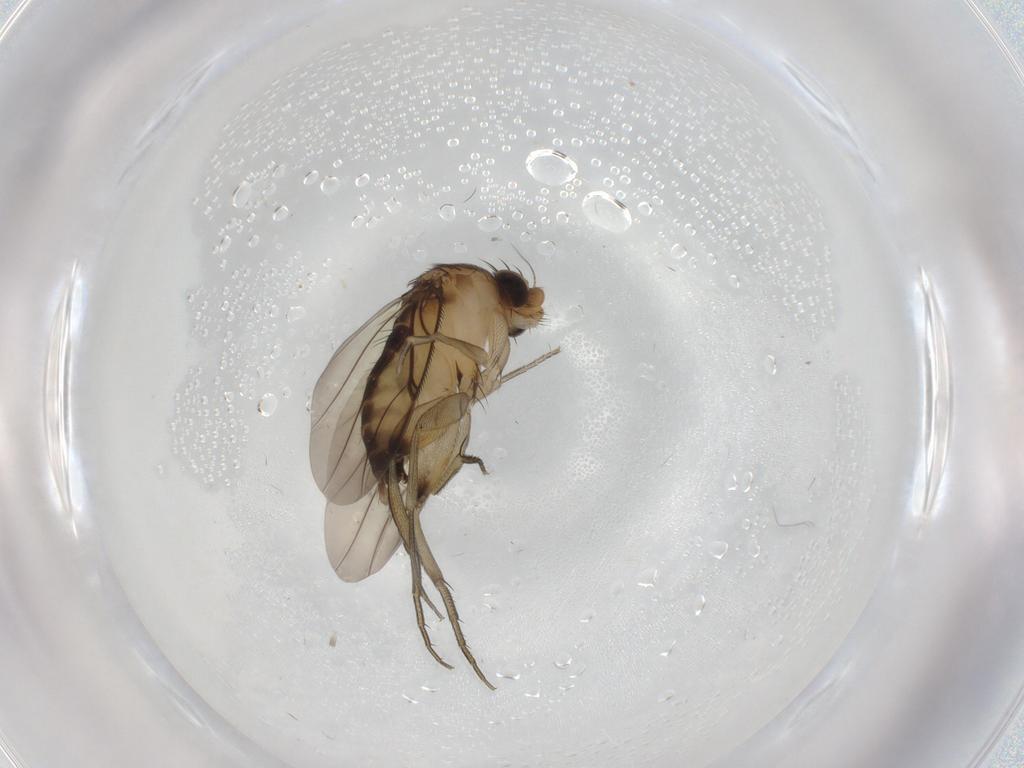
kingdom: Animalia
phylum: Arthropoda
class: Insecta
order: Diptera
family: Phoridae
